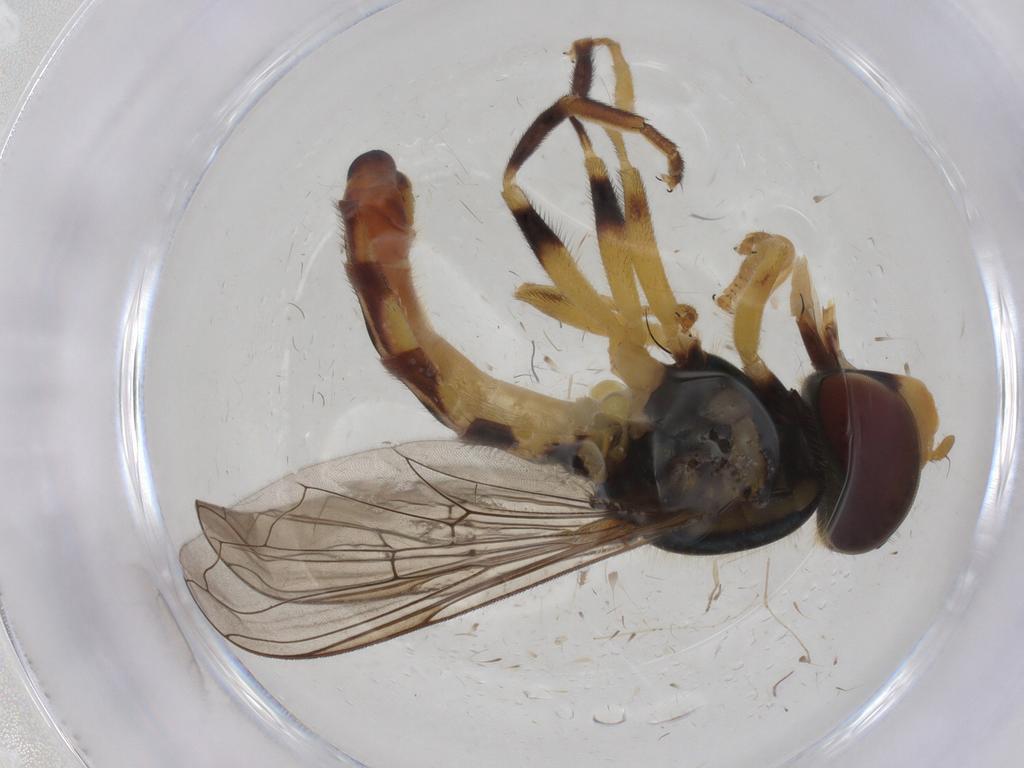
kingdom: Animalia
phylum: Arthropoda
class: Insecta
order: Diptera
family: Syrphidae
